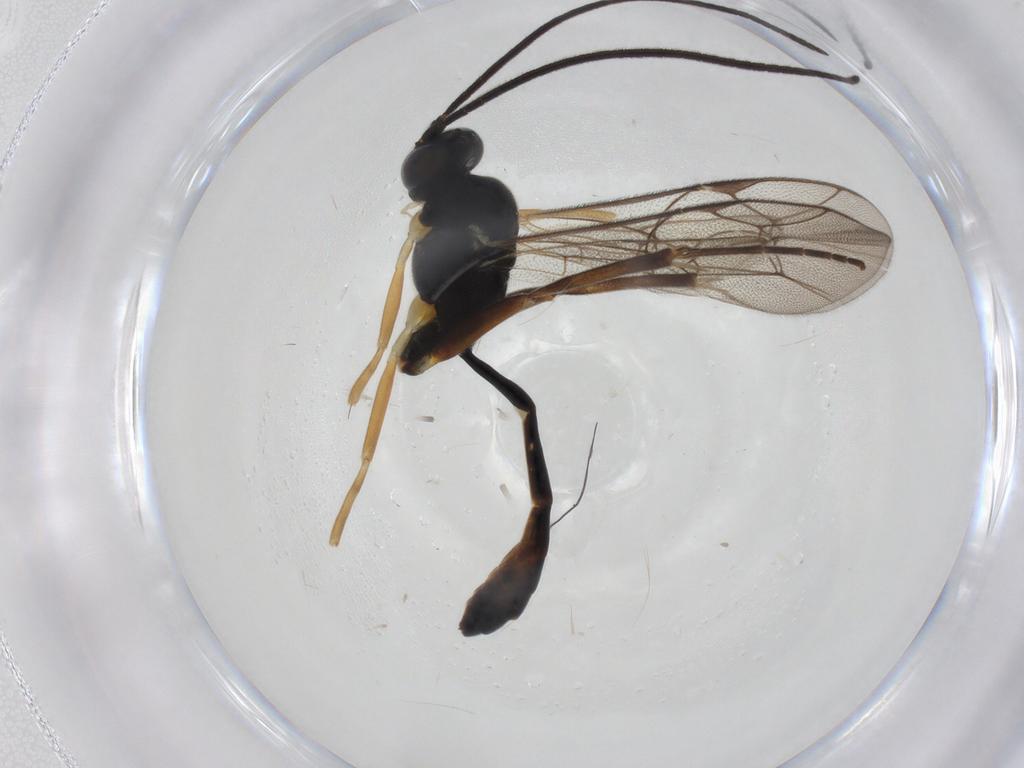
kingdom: Animalia
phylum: Arthropoda
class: Insecta
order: Hymenoptera
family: Ichneumonidae
